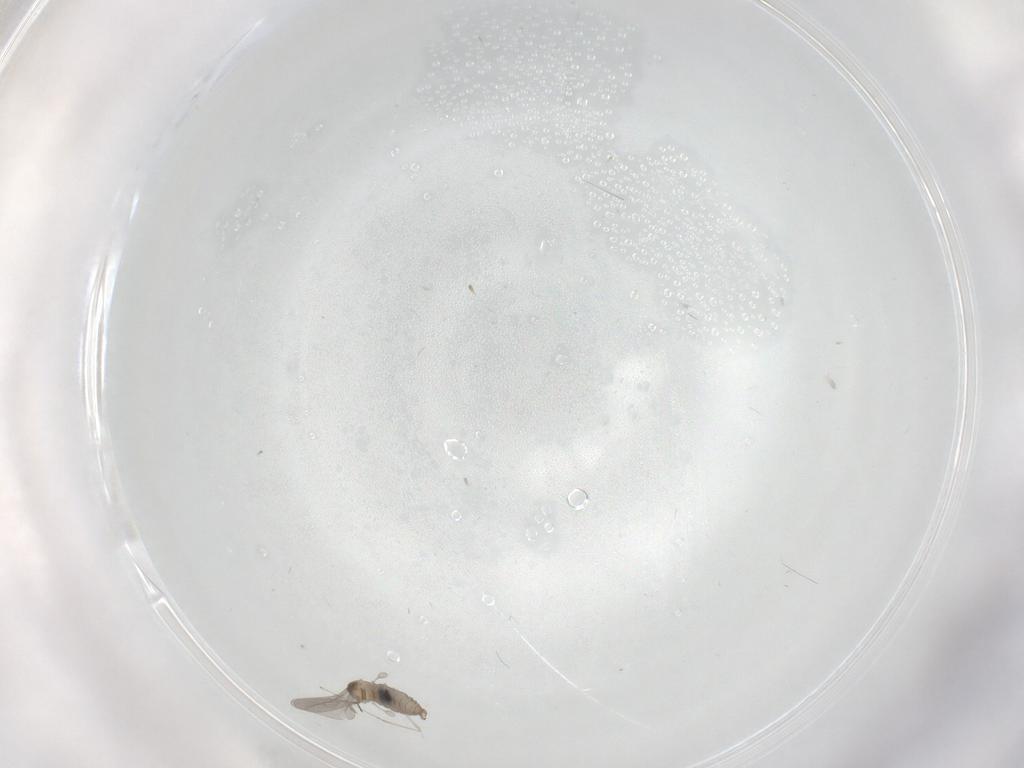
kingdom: Animalia
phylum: Arthropoda
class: Insecta
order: Diptera
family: Cecidomyiidae
